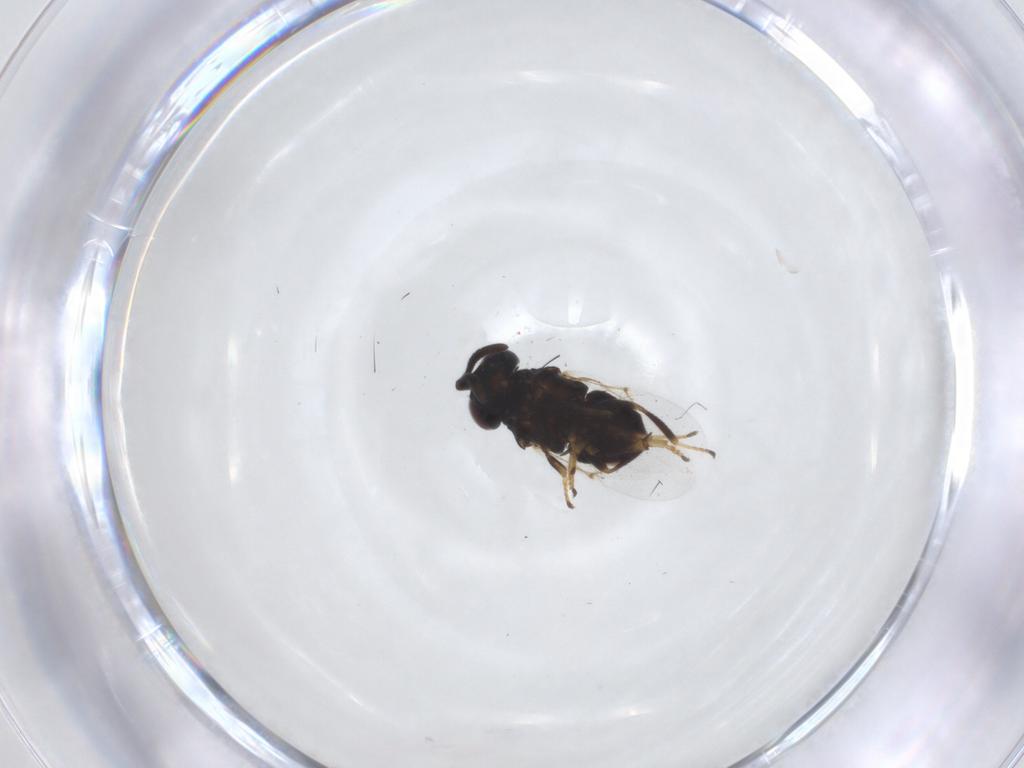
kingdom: Animalia
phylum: Arthropoda
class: Insecta
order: Hymenoptera
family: Encyrtidae
